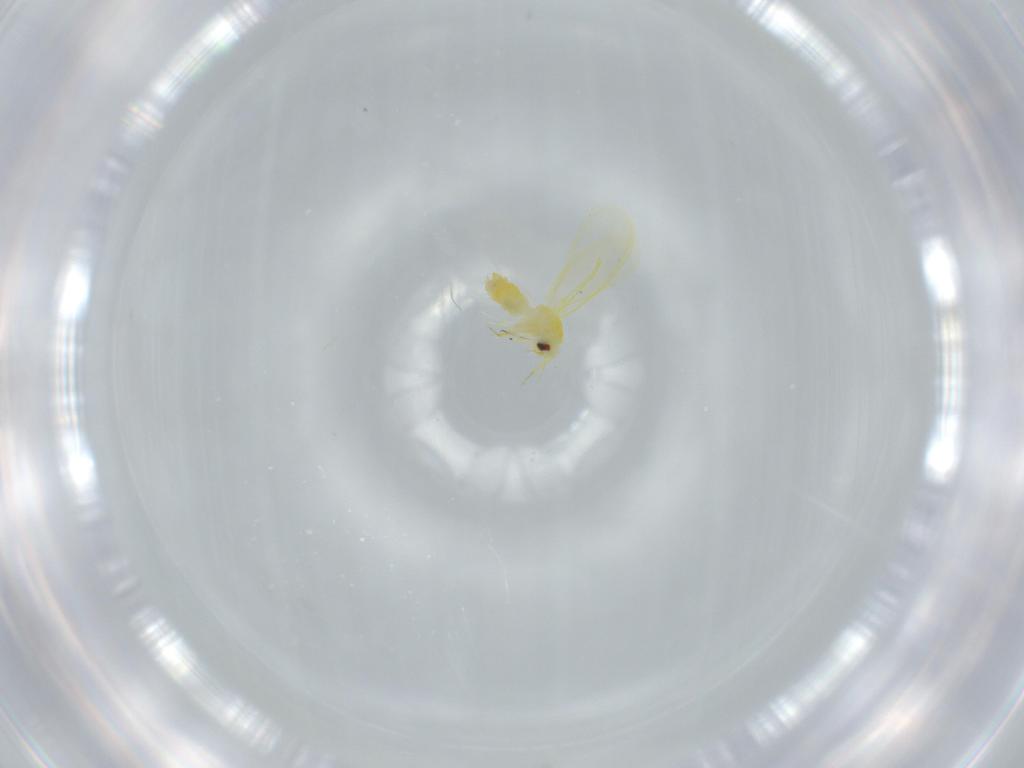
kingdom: Animalia
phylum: Arthropoda
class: Insecta
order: Hemiptera
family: Aleyrodidae
